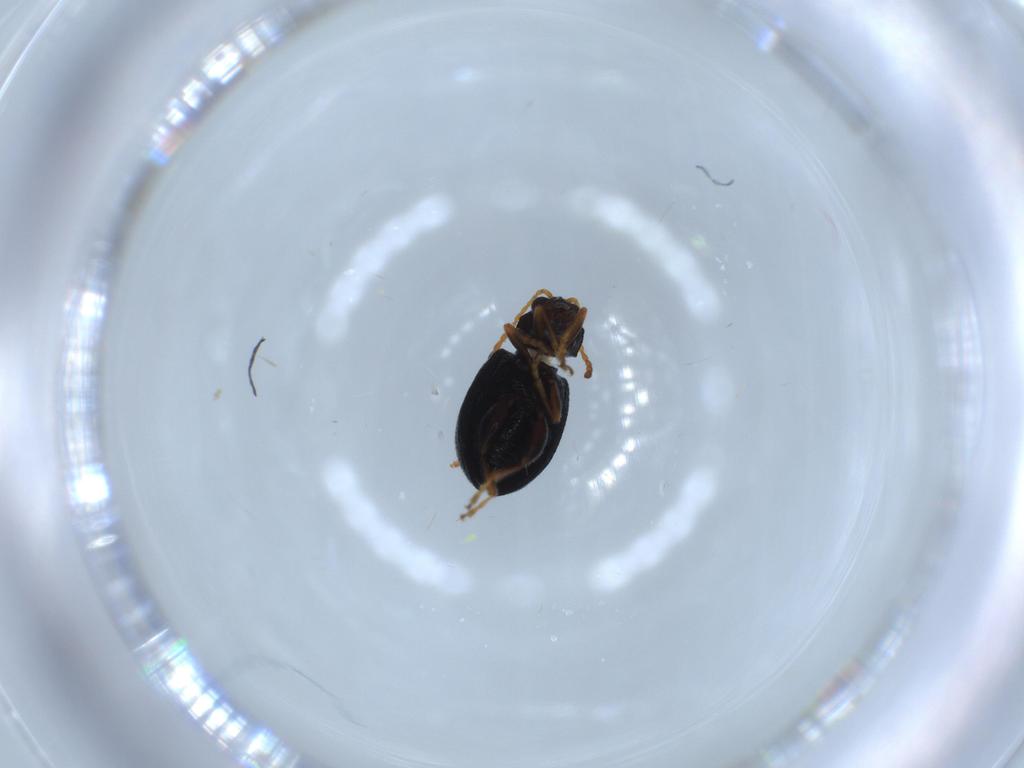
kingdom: Animalia
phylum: Arthropoda
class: Insecta
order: Coleoptera
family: Chrysomelidae
